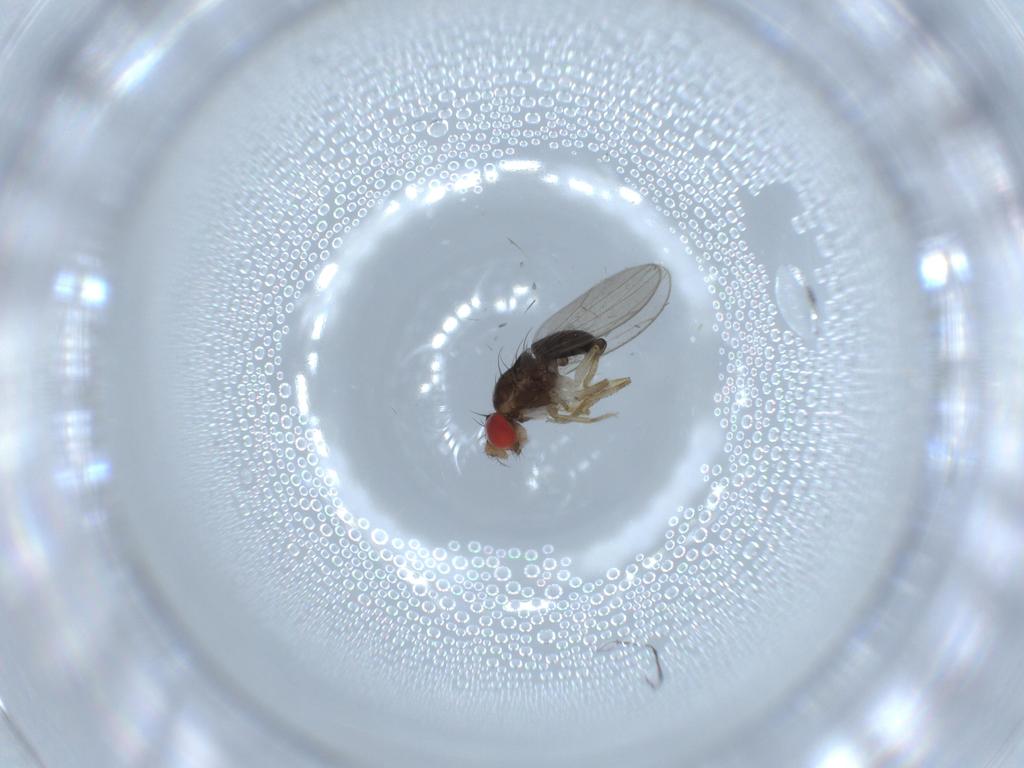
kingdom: Animalia
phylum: Arthropoda
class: Insecta
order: Diptera
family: Drosophilidae
